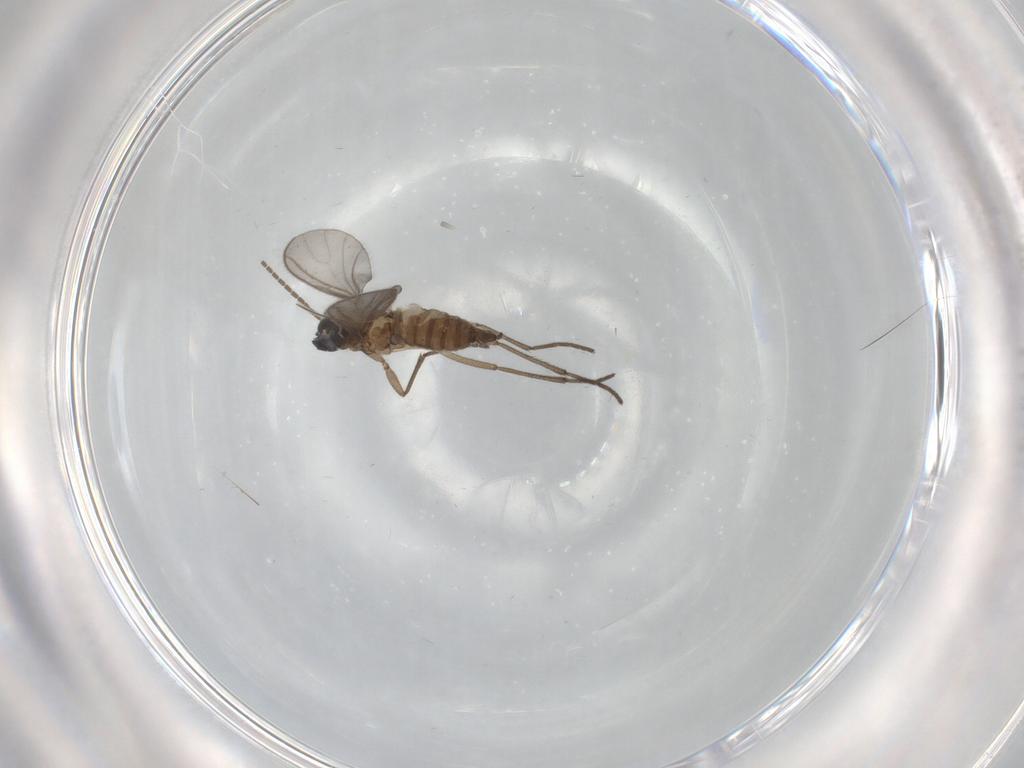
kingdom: Animalia
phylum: Arthropoda
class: Insecta
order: Diptera
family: Sciaridae
